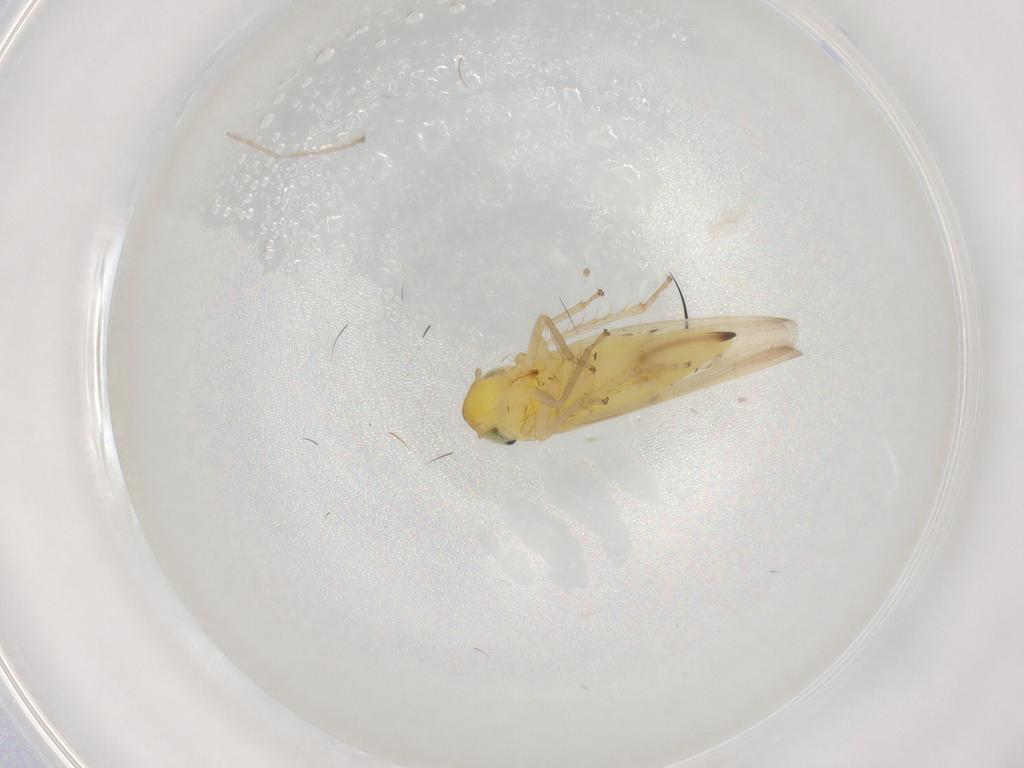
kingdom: Animalia
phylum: Arthropoda
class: Insecta
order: Hemiptera
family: Cicadellidae
